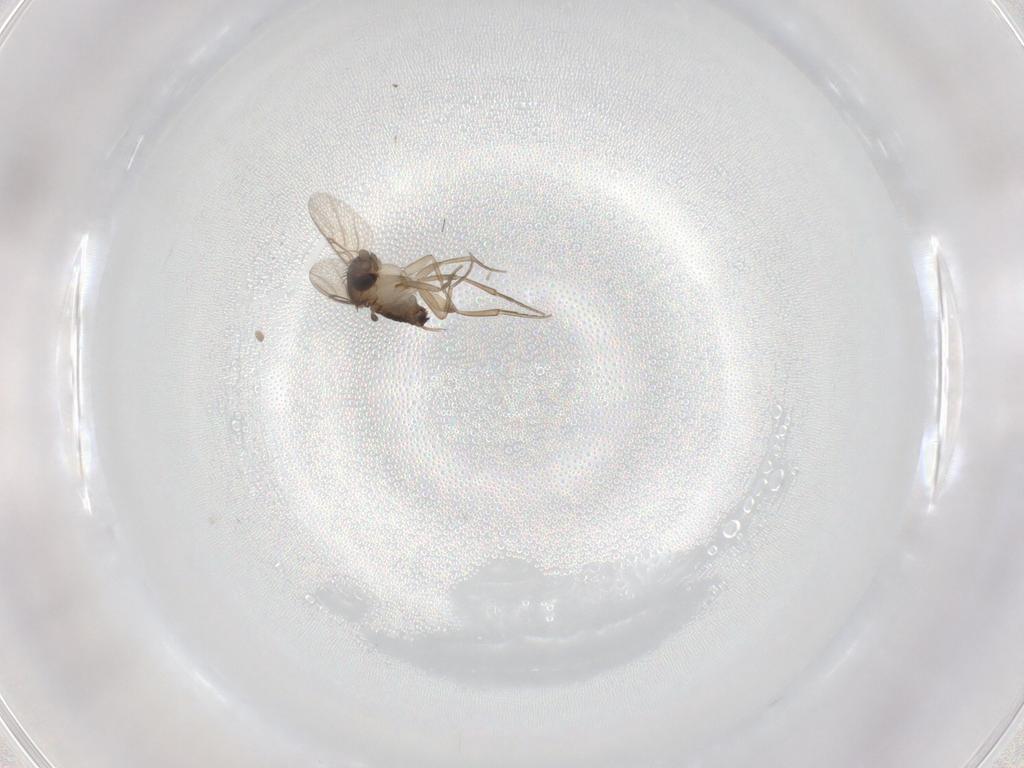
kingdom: Animalia
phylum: Arthropoda
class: Insecta
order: Diptera
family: Phoridae
